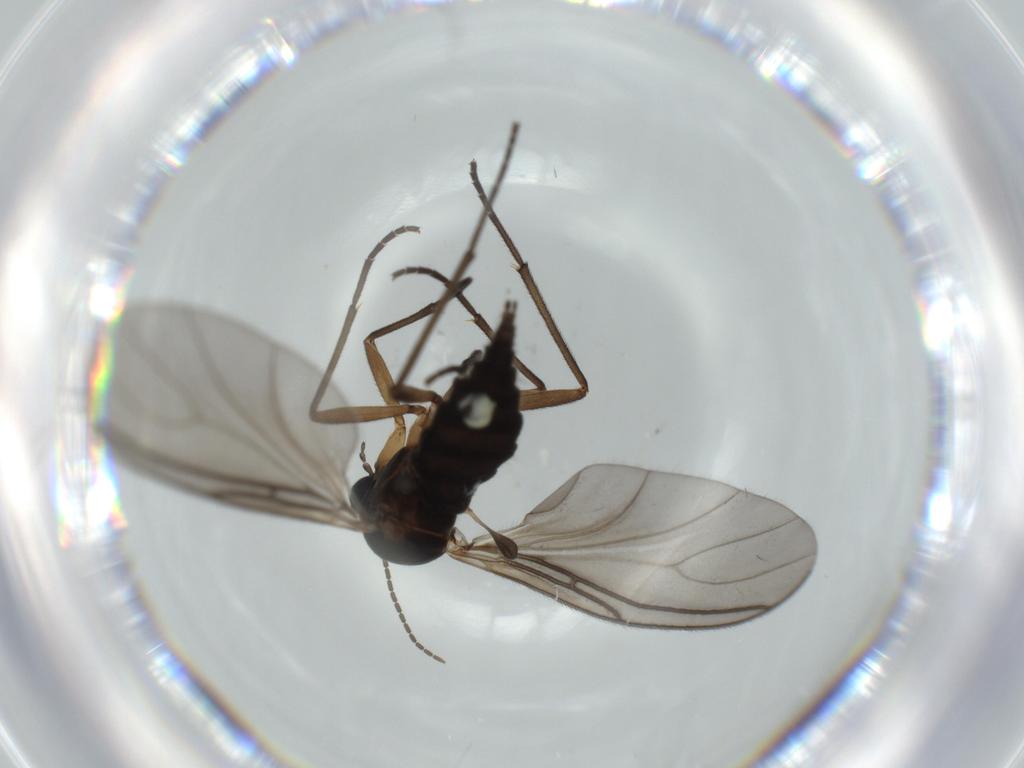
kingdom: Animalia
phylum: Arthropoda
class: Insecta
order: Diptera
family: Sciaridae
